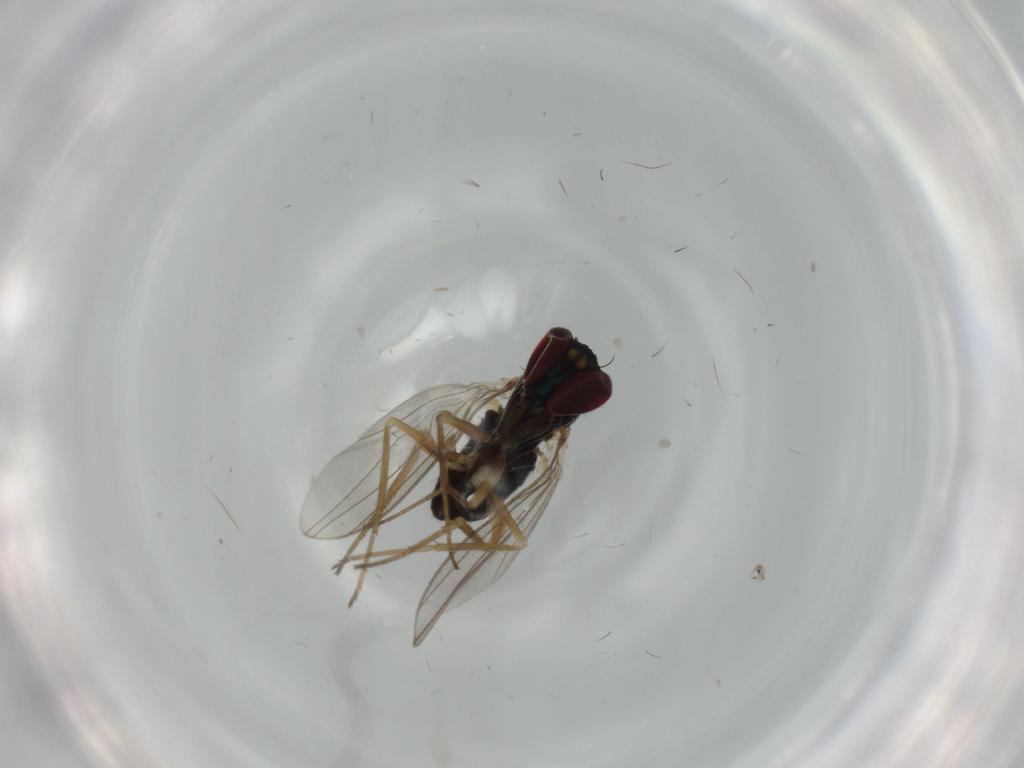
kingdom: Animalia
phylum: Arthropoda
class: Insecta
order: Diptera
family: Dolichopodidae
